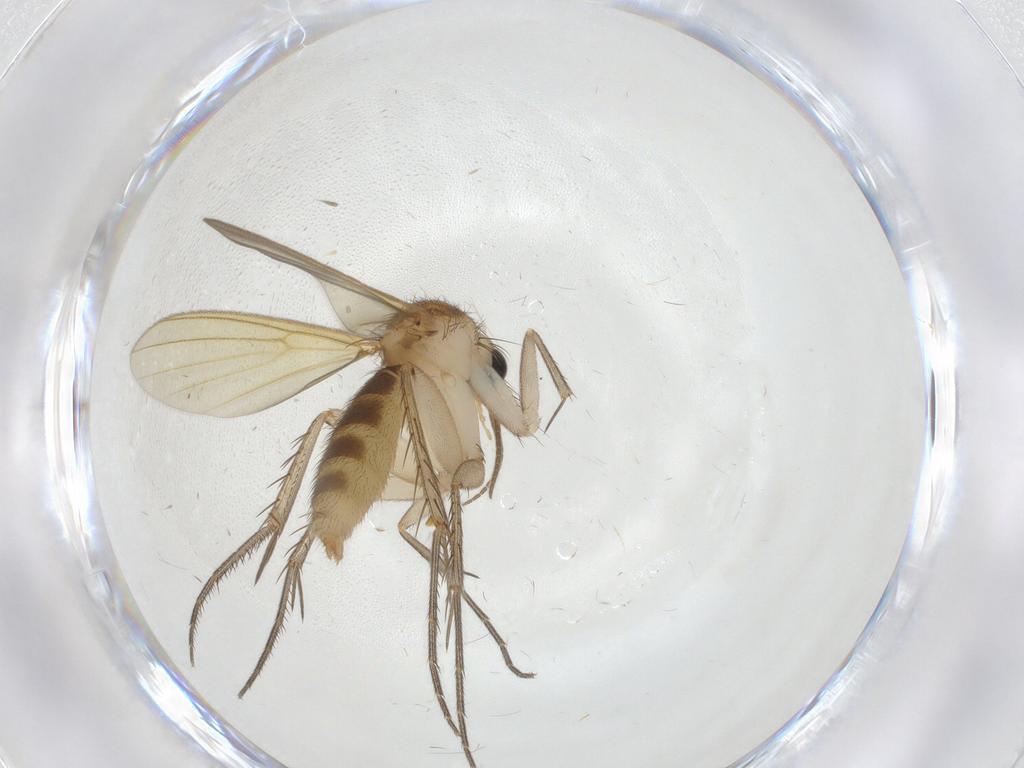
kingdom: Animalia
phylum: Arthropoda
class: Insecta
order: Diptera
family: Mycetophilidae
